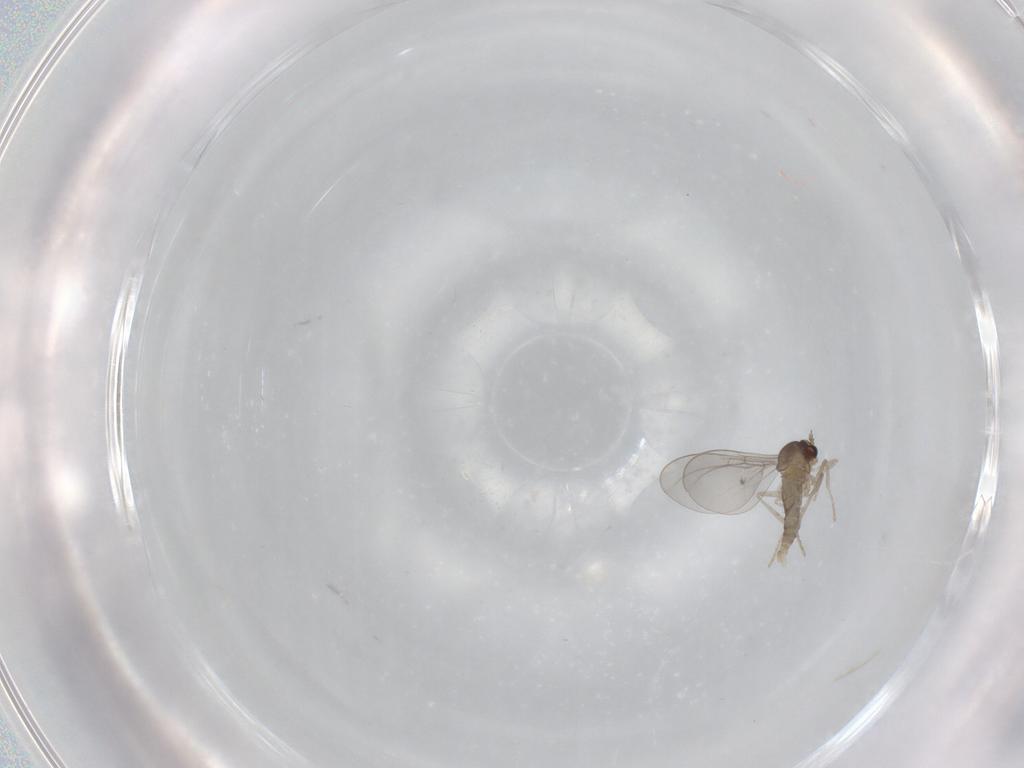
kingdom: Animalia
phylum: Arthropoda
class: Insecta
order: Diptera
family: Cecidomyiidae
